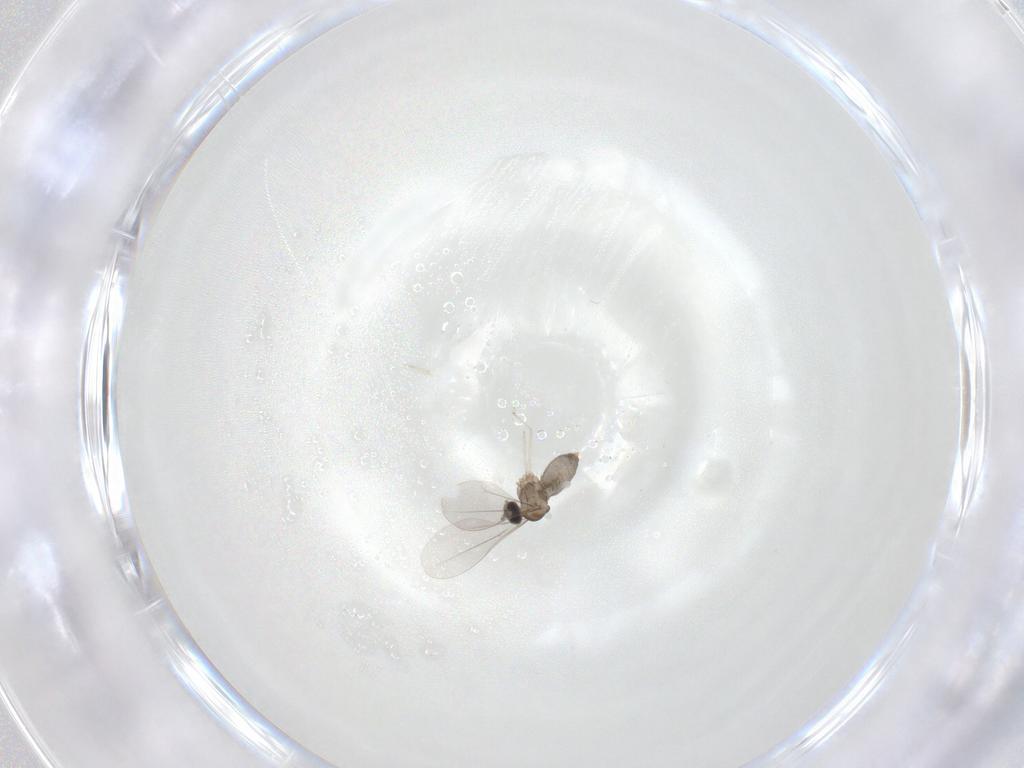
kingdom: Animalia
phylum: Arthropoda
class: Insecta
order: Diptera
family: Cecidomyiidae
